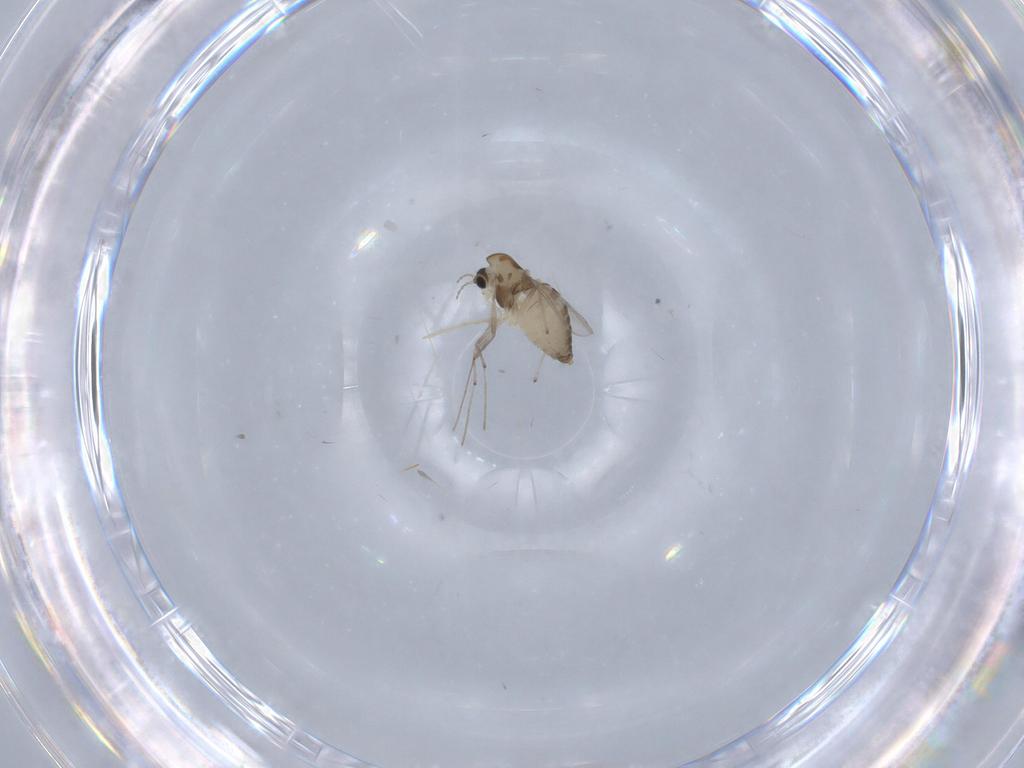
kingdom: Animalia
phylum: Arthropoda
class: Insecta
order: Diptera
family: Chironomidae
